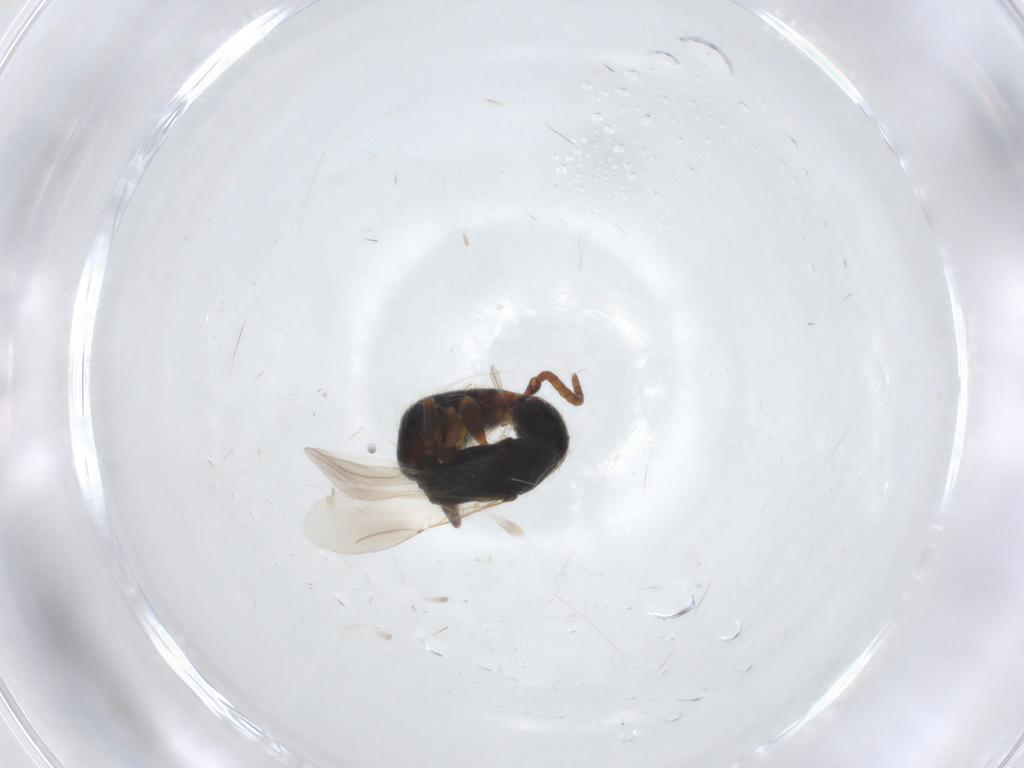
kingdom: Animalia
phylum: Arthropoda
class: Insecta
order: Hymenoptera
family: Bethylidae
